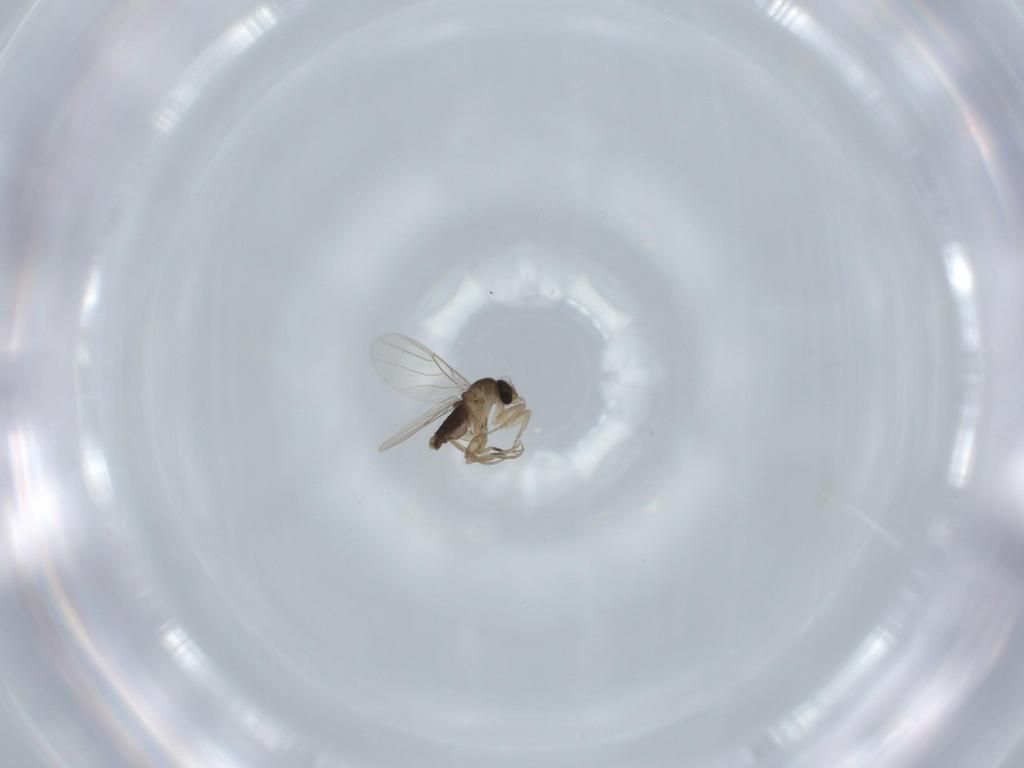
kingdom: Animalia
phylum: Arthropoda
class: Insecta
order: Diptera
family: Phoridae
